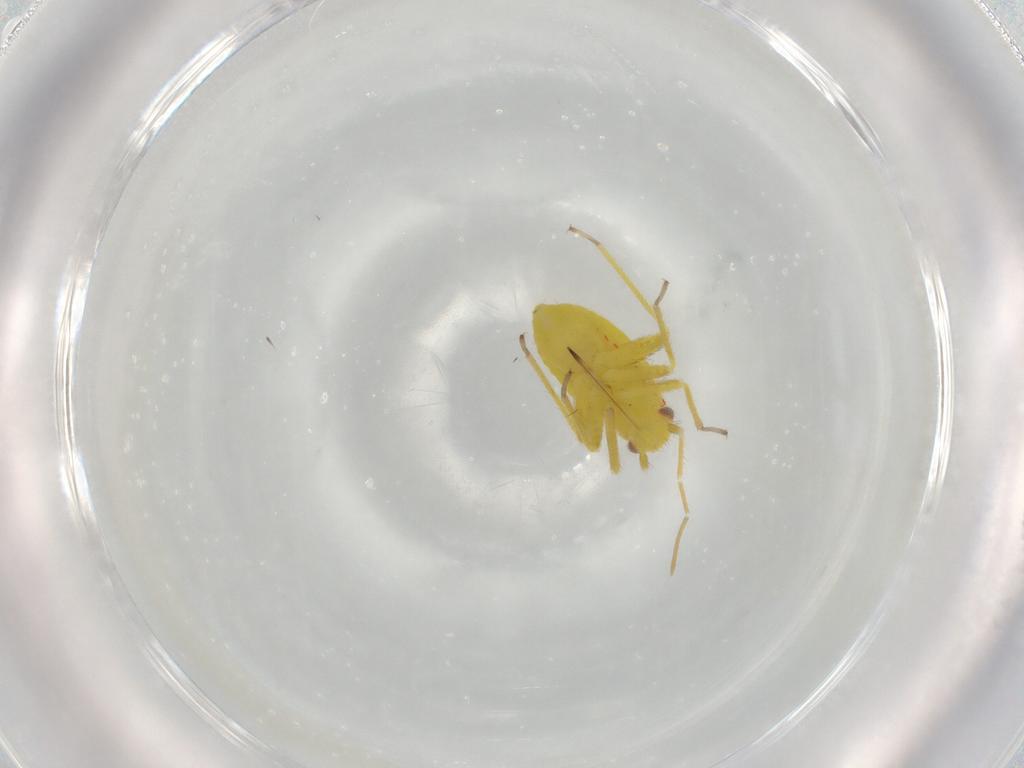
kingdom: Animalia
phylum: Arthropoda
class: Insecta
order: Hemiptera
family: Miridae
